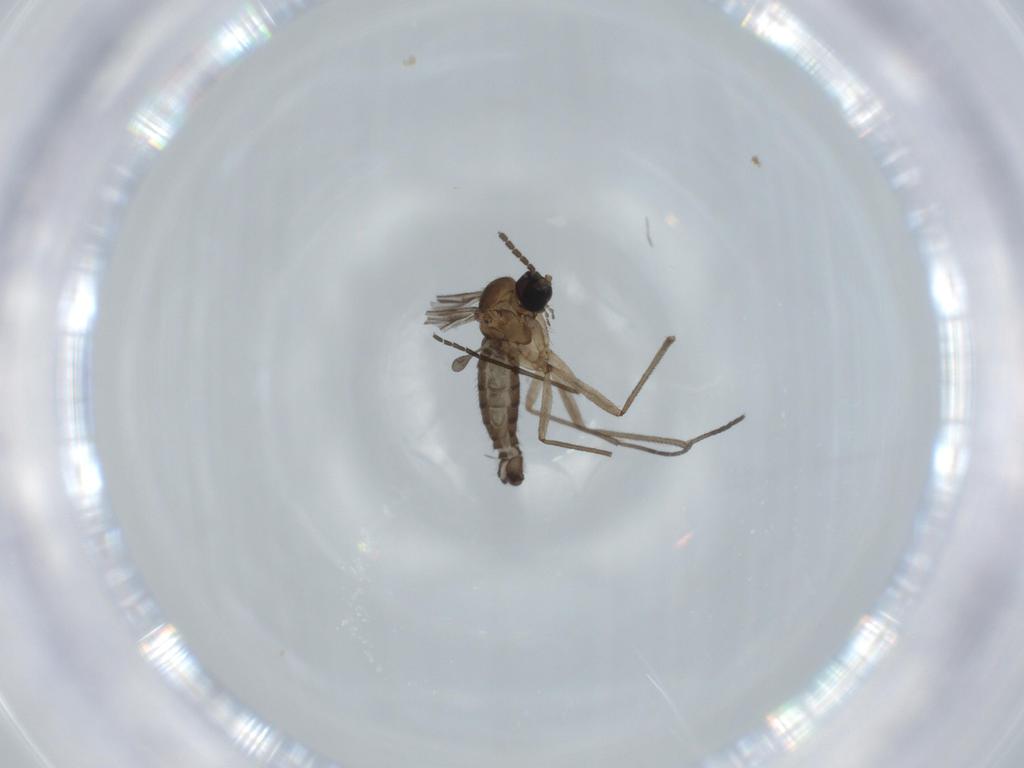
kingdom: Animalia
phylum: Arthropoda
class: Insecta
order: Diptera
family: Sciaridae
